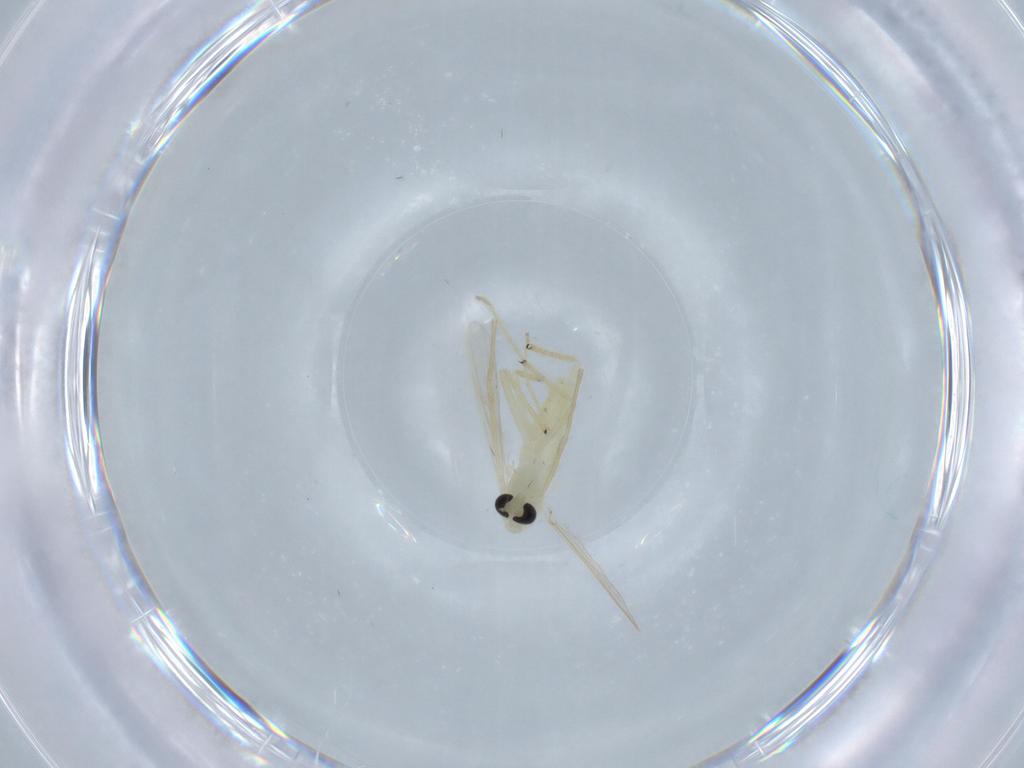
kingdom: Animalia
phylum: Arthropoda
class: Insecta
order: Diptera
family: Chironomidae
